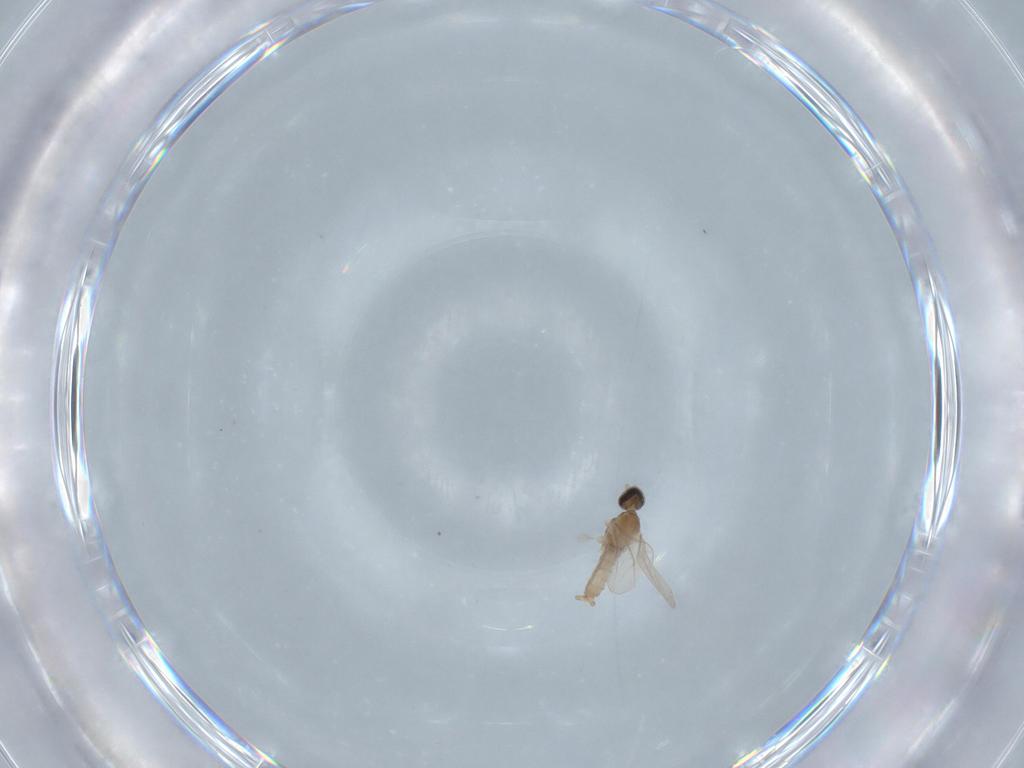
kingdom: Animalia
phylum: Arthropoda
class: Insecta
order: Diptera
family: Cecidomyiidae
